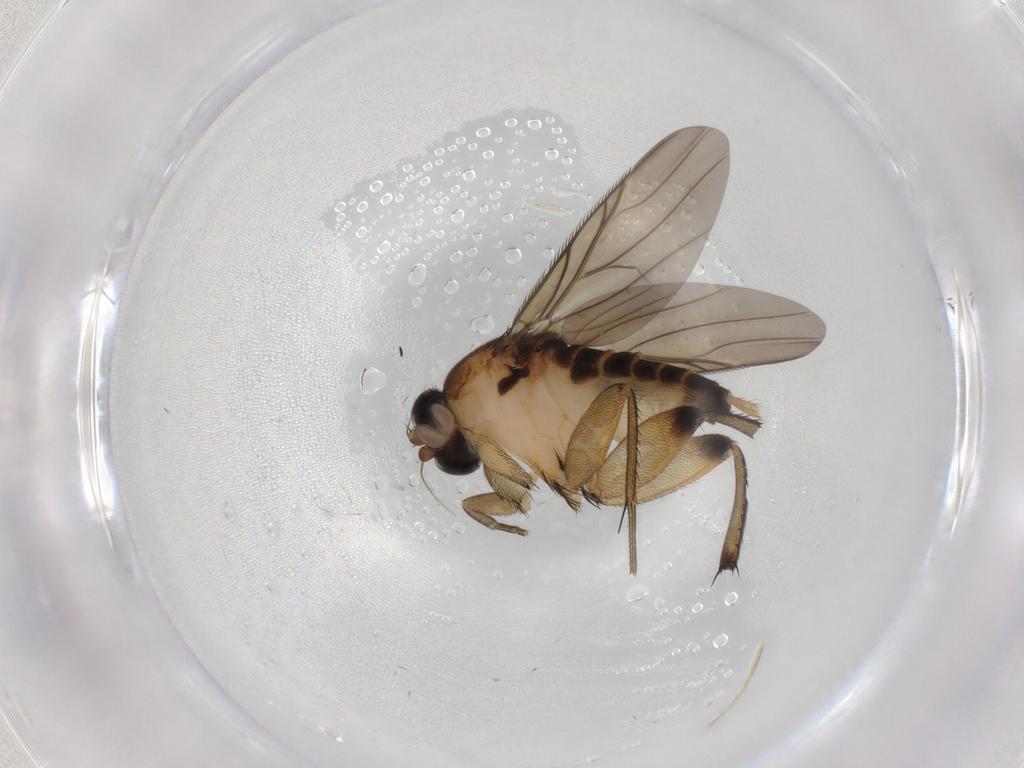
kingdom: Animalia
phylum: Arthropoda
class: Insecta
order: Diptera
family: Phoridae
